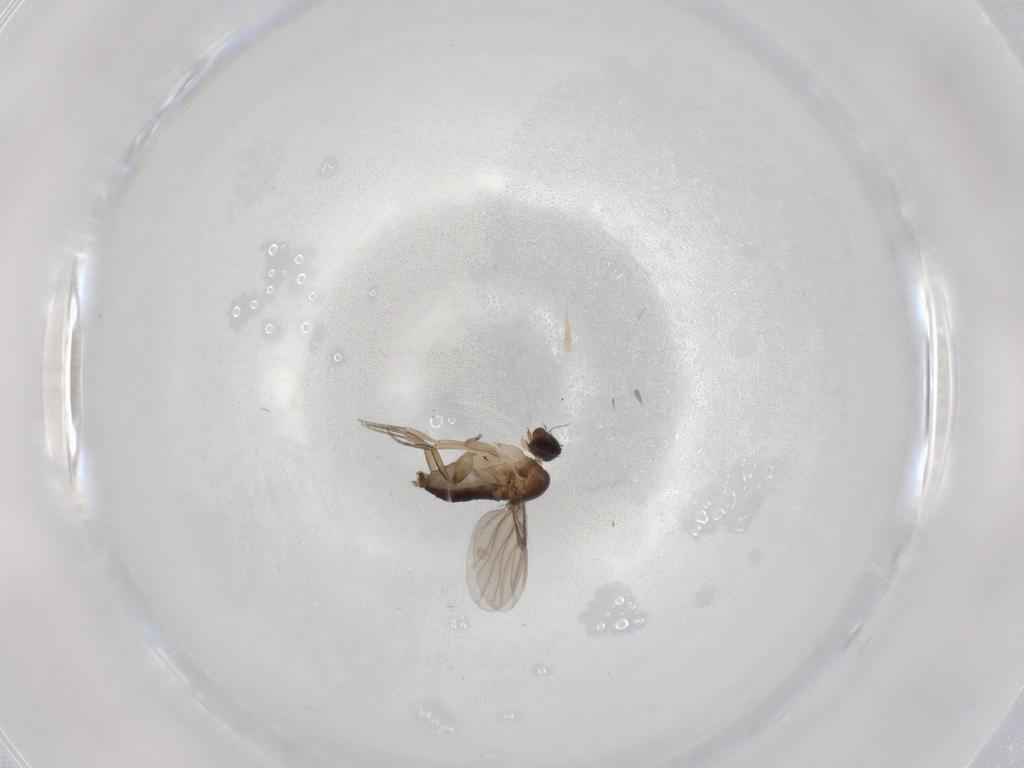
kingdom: Animalia
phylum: Arthropoda
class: Insecta
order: Diptera
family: Phoridae
